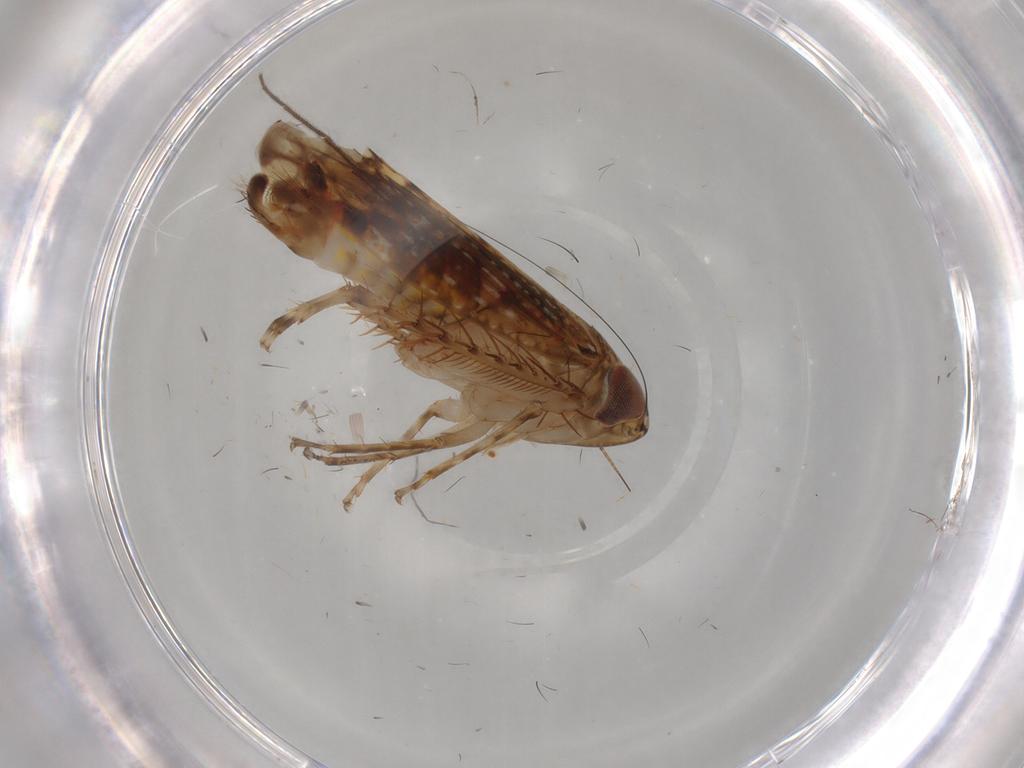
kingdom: Animalia
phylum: Arthropoda
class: Insecta
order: Hemiptera
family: Cicadellidae
